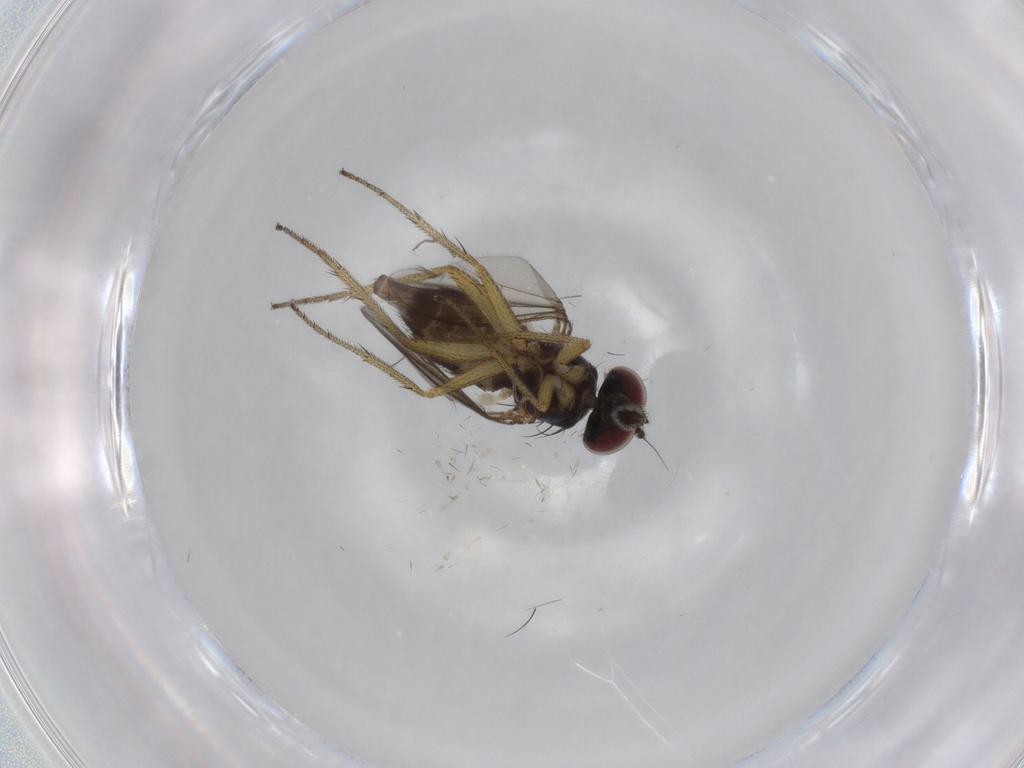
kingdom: Animalia
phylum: Arthropoda
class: Insecta
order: Diptera
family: Dolichopodidae
